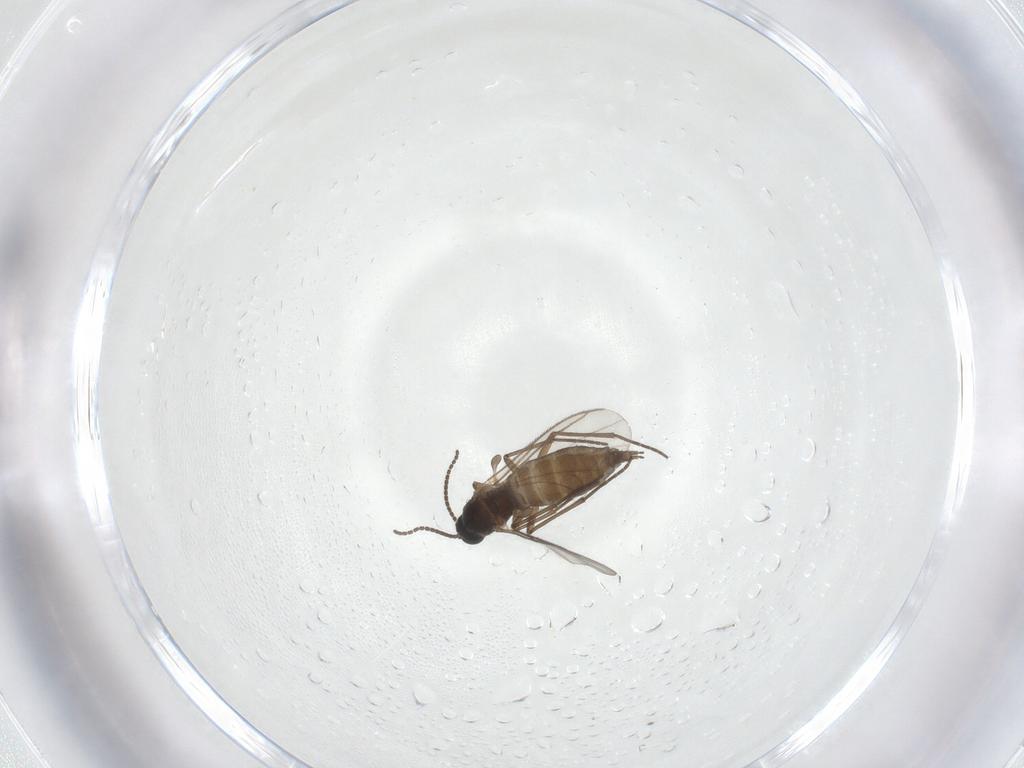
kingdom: Animalia
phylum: Arthropoda
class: Insecta
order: Diptera
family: Sciaridae
